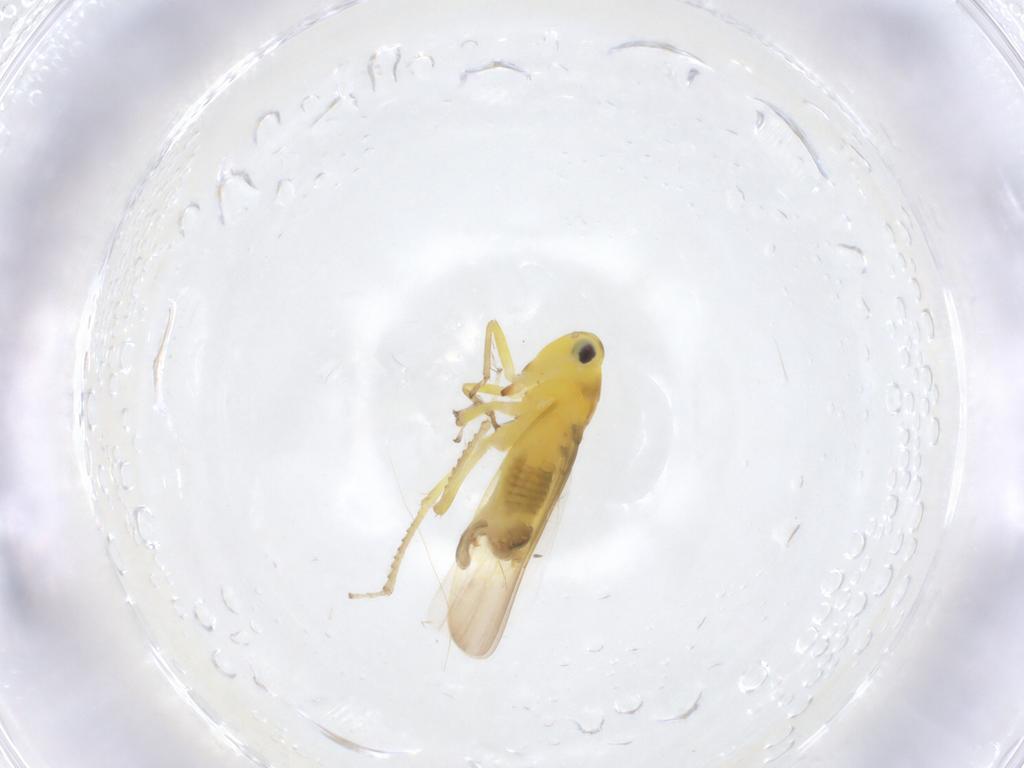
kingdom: Animalia
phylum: Arthropoda
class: Insecta
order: Hemiptera
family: Cicadellidae
